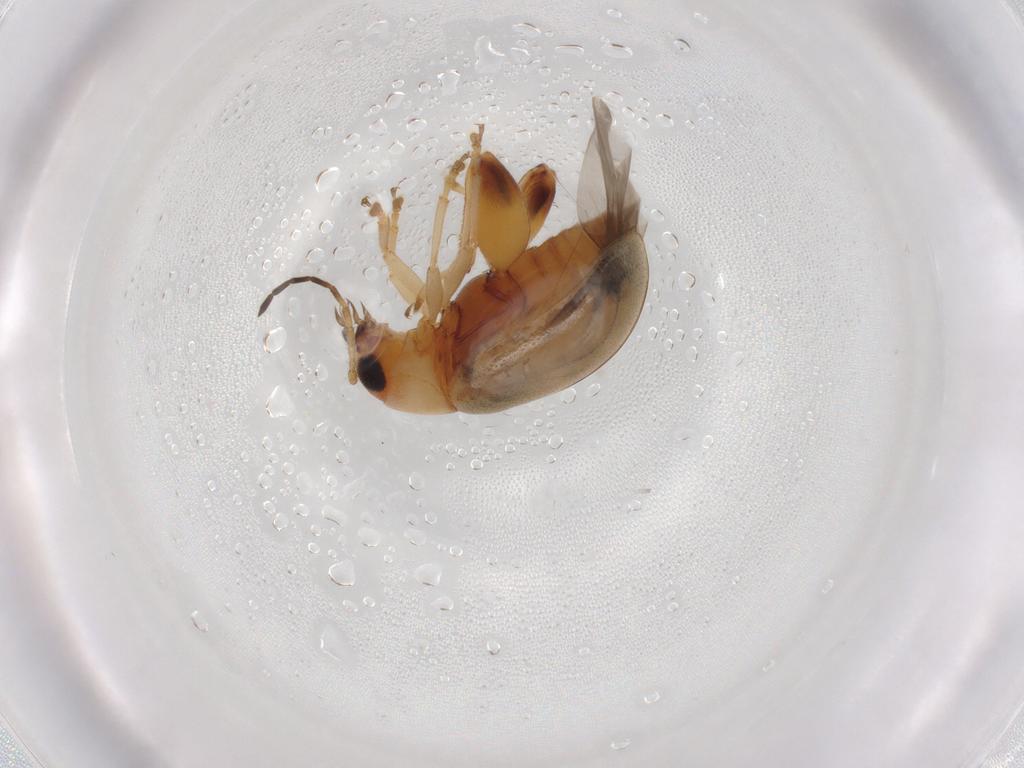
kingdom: Animalia
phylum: Arthropoda
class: Insecta
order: Coleoptera
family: Chrysomelidae
